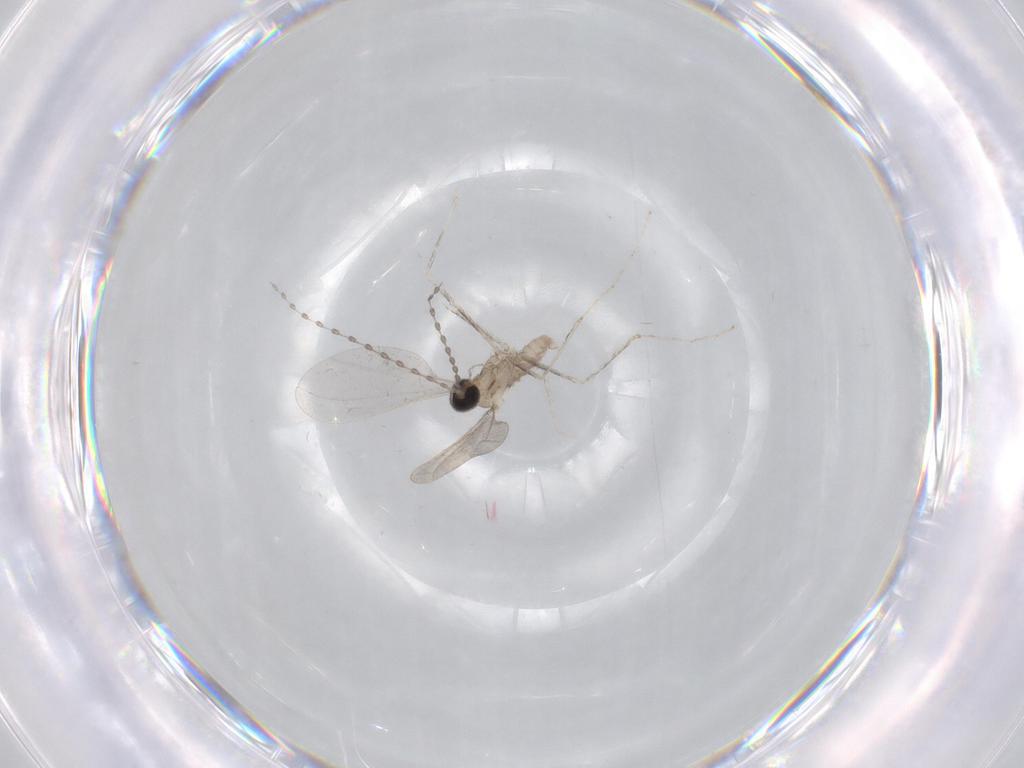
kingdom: Animalia
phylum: Arthropoda
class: Insecta
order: Diptera
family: Cecidomyiidae
